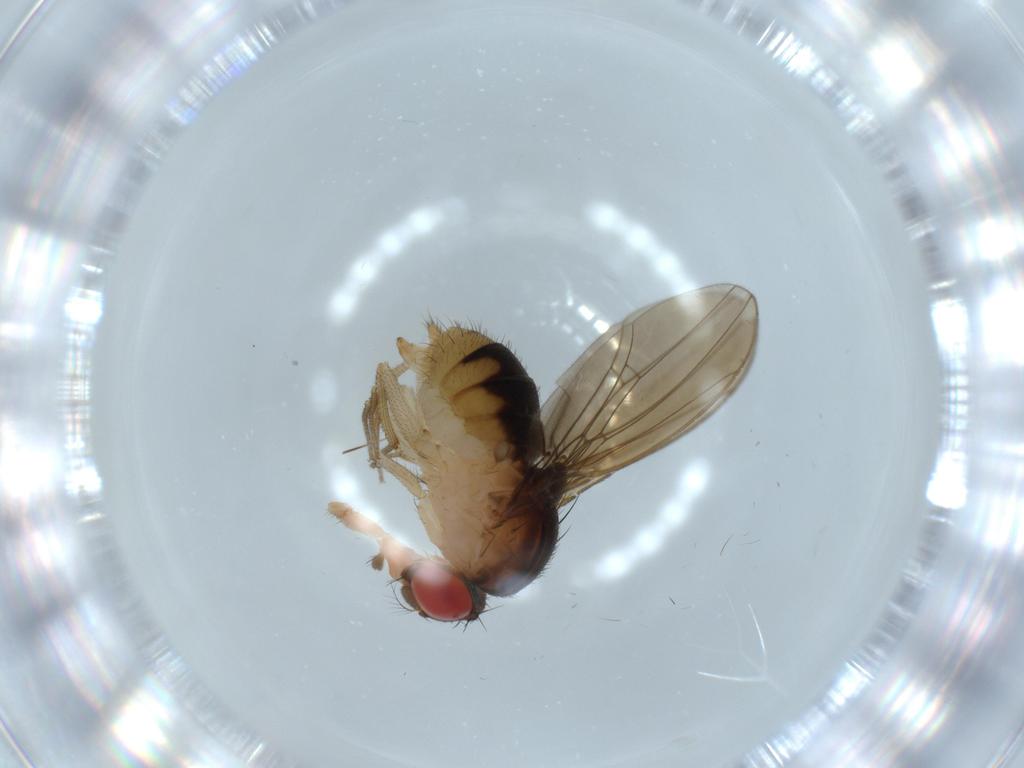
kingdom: Animalia
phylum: Arthropoda
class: Insecta
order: Diptera
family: Drosophilidae
